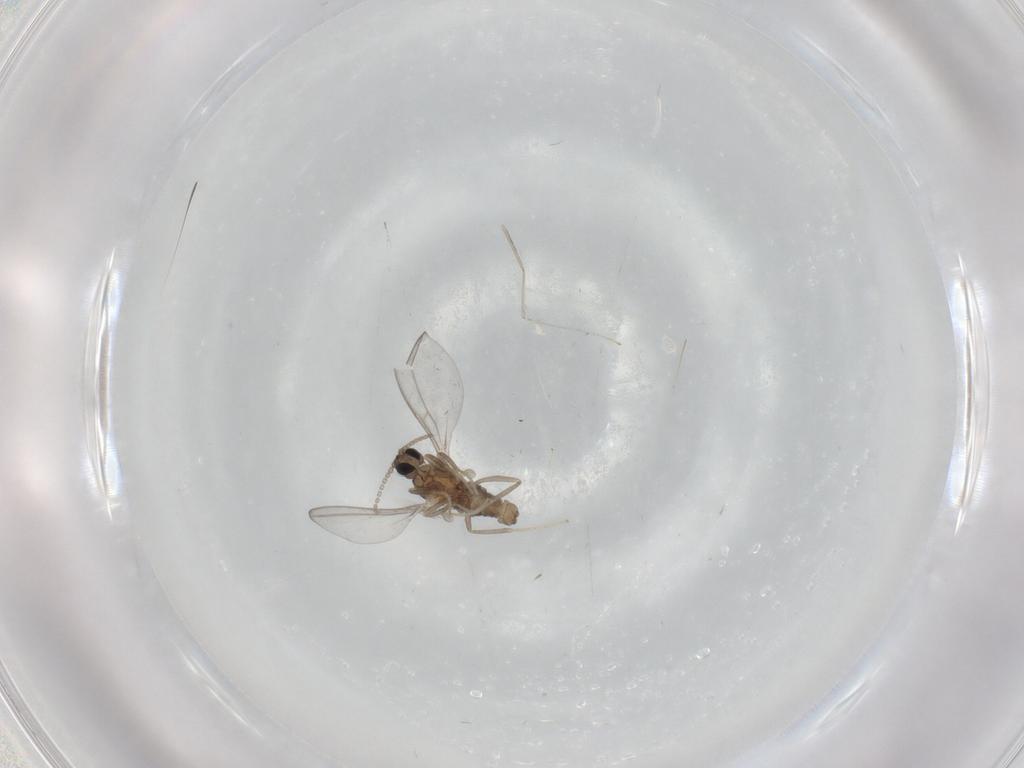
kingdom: Animalia
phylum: Arthropoda
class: Insecta
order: Diptera
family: Cecidomyiidae
